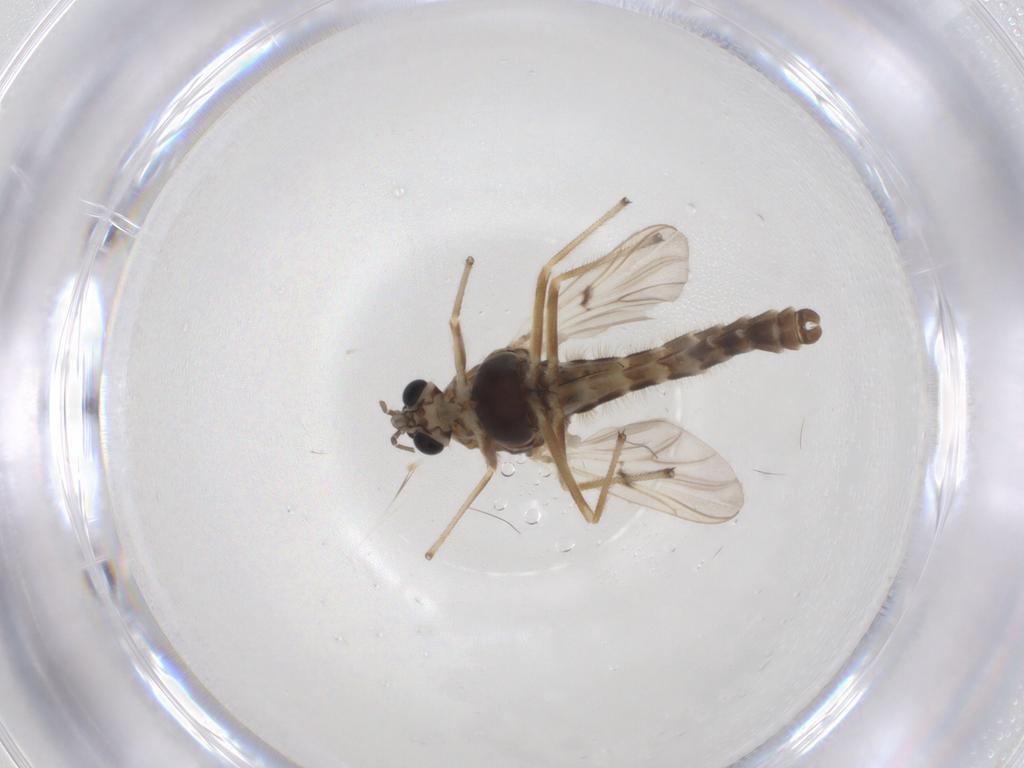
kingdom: Animalia
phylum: Arthropoda
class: Insecta
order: Diptera
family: Chironomidae
